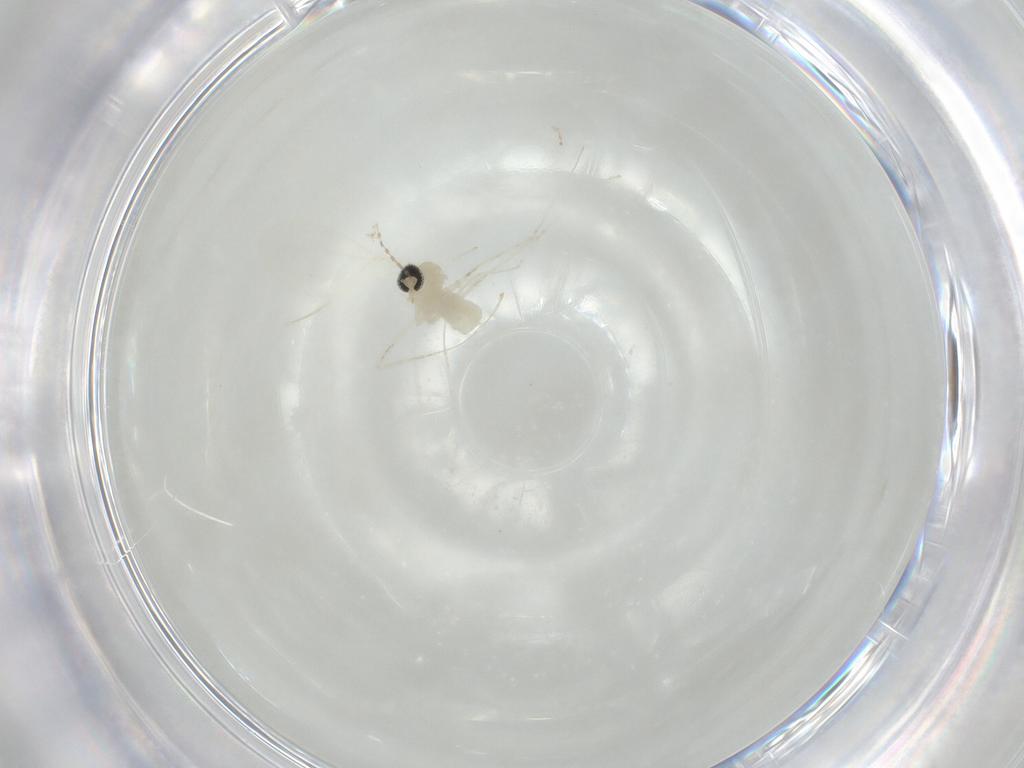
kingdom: Animalia
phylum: Arthropoda
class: Insecta
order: Diptera
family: Cecidomyiidae
